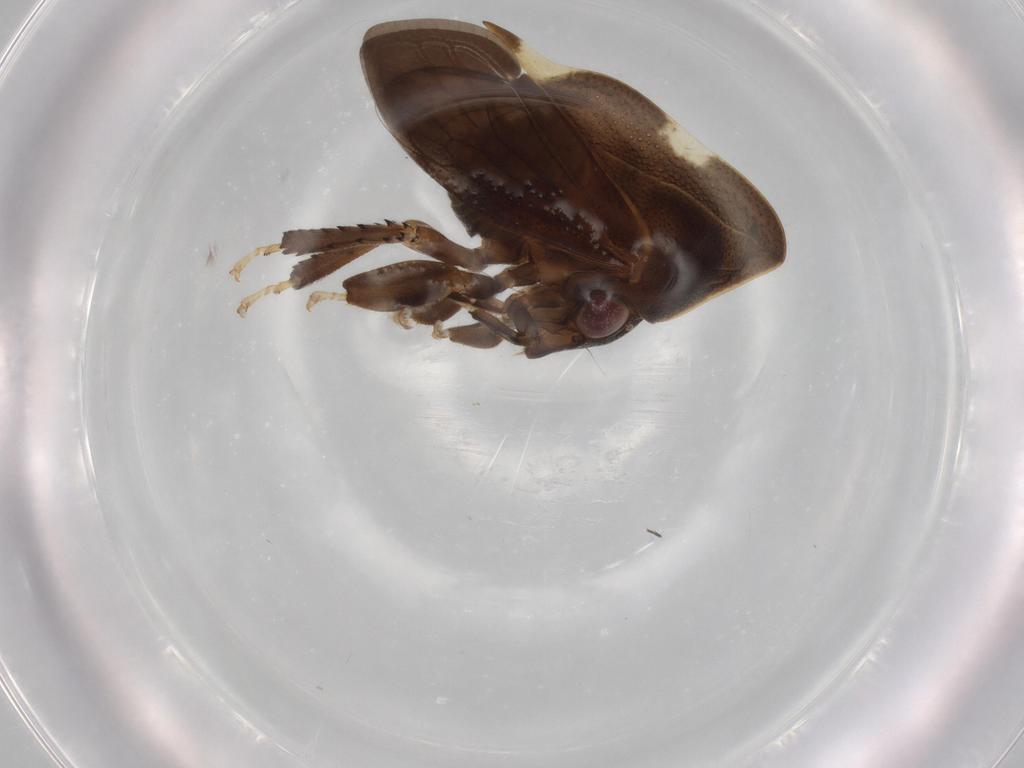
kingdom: Animalia
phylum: Arthropoda
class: Insecta
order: Hemiptera
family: Membracidae
